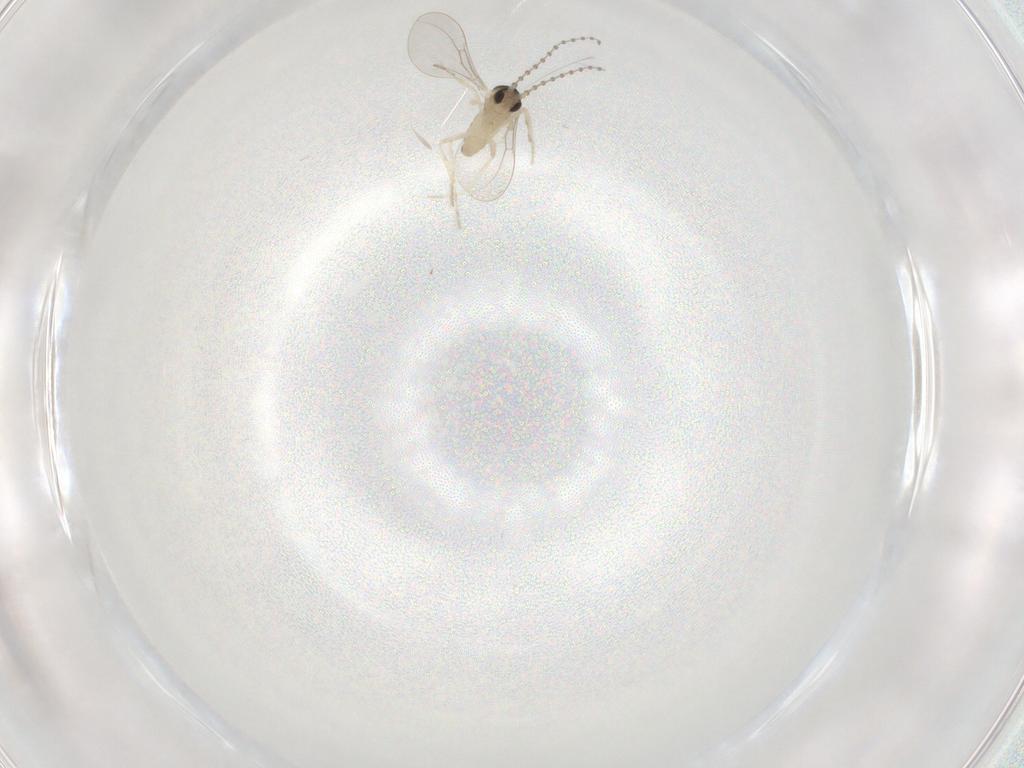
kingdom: Animalia
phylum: Arthropoda
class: Insecta
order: Diptera
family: Cecidomyiidae
